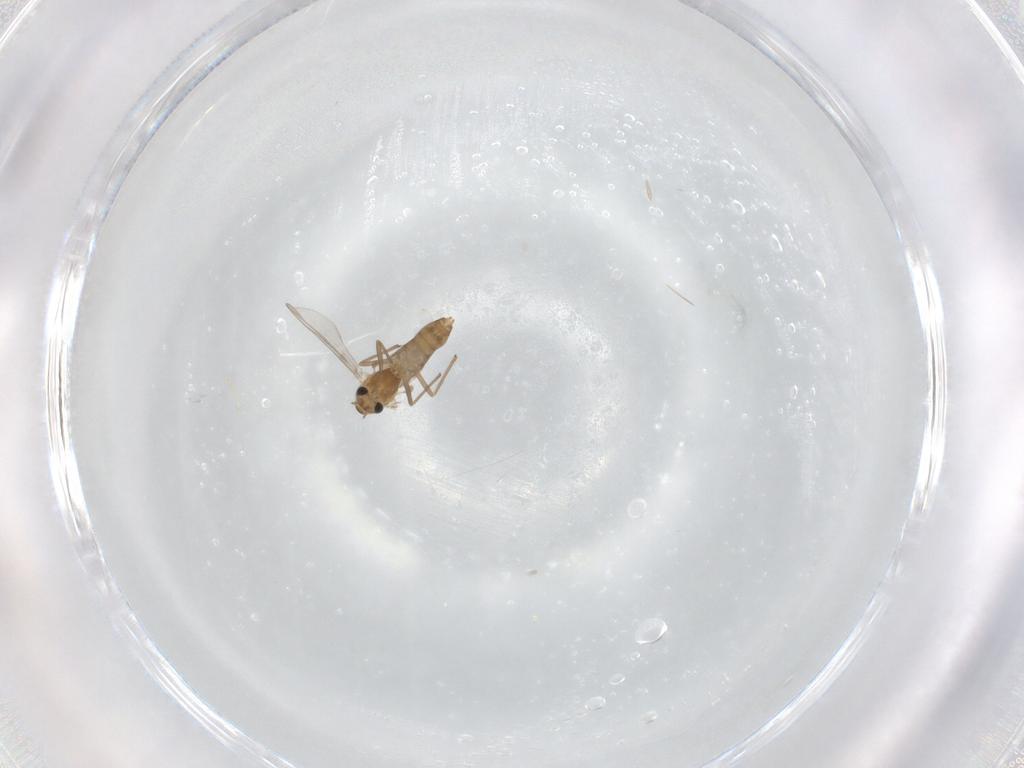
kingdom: Animalia
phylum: Arthropoda
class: Insecta
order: Diptera
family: Chironomidae
